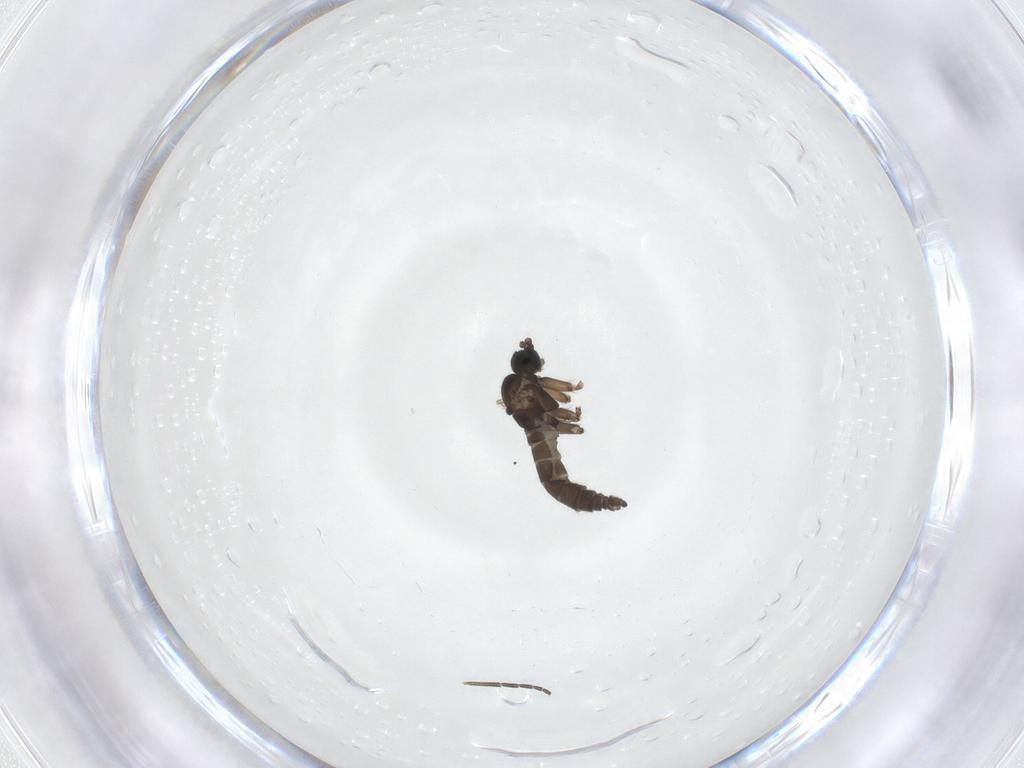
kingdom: Animalia
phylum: Arthropoda
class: Insecta
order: Diptera
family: Sciaridae
